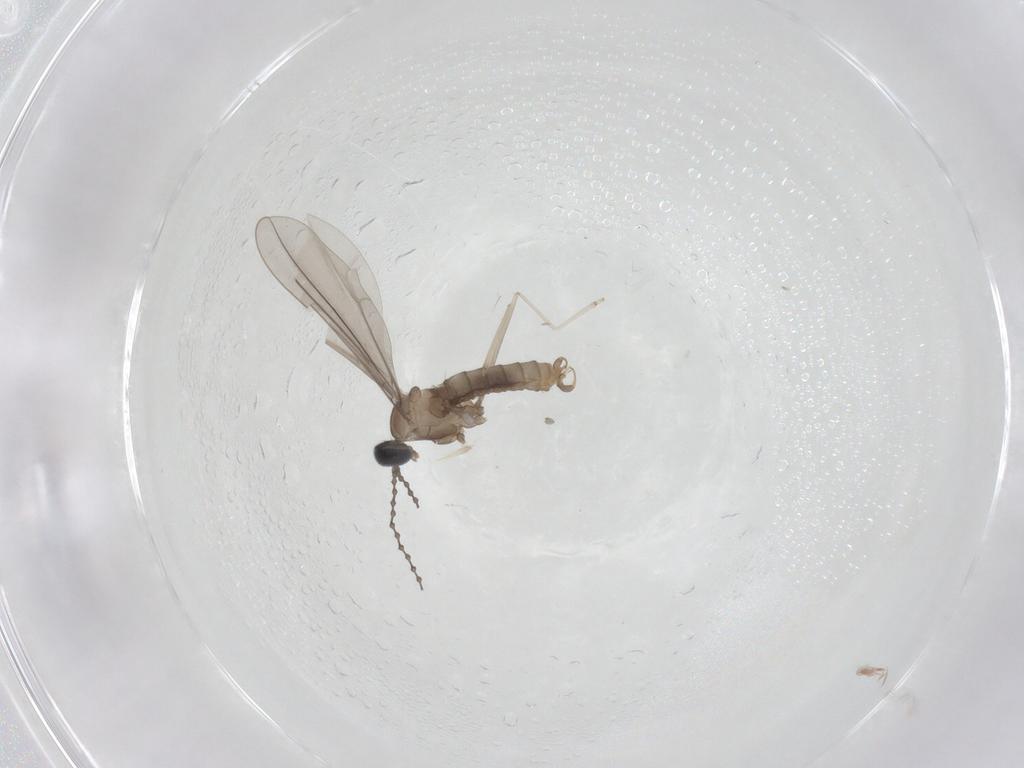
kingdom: Animalia
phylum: Arthropoda
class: Insecta
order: Diptera
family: Cecidomyiidae
